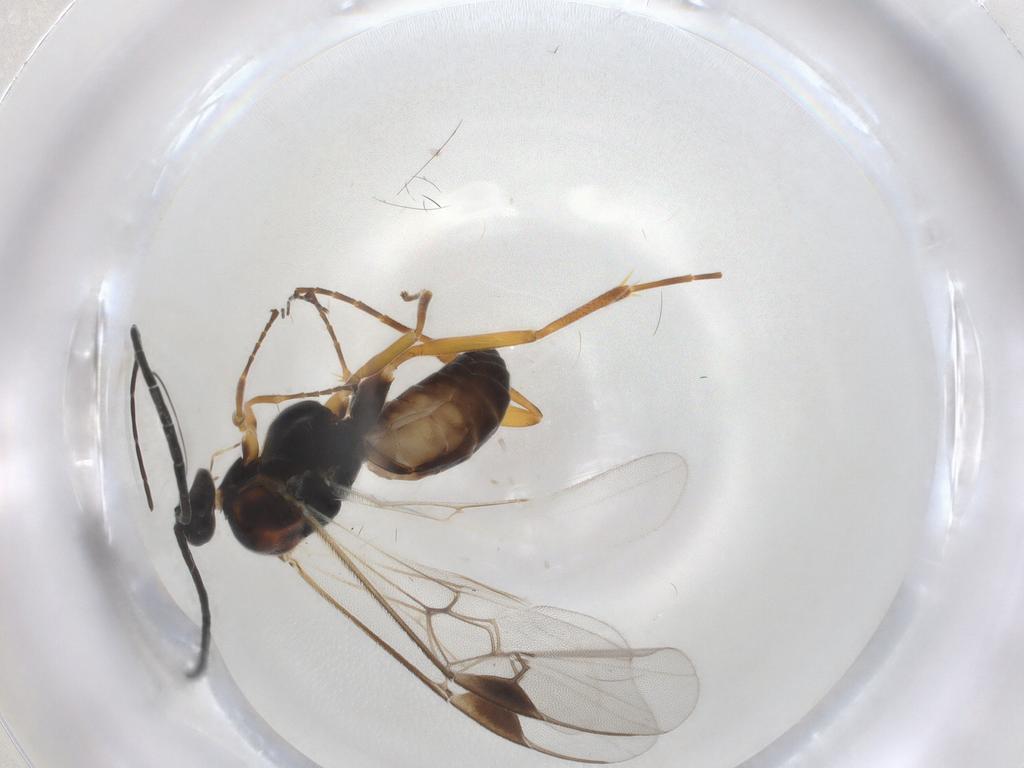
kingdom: Animalia
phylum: Arthropoda
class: Insecta
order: Hymenoptera
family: Braconidae
